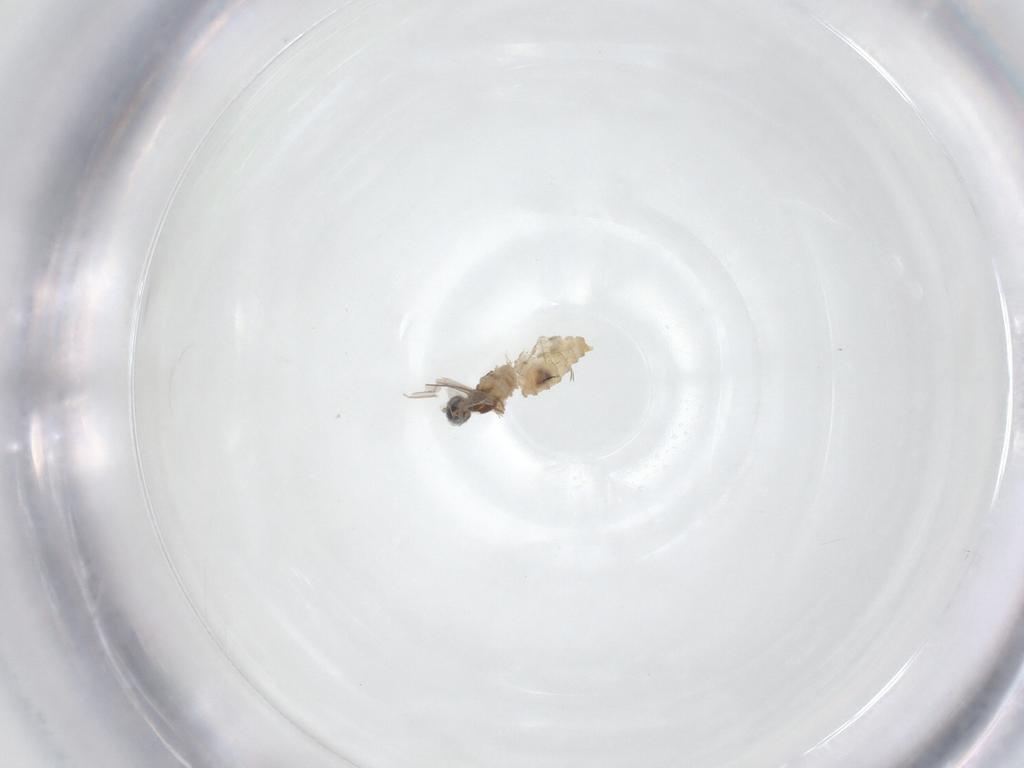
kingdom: Animalia
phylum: Arthropoda
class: Insecta
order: Diptera
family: Cecidomyiidae
